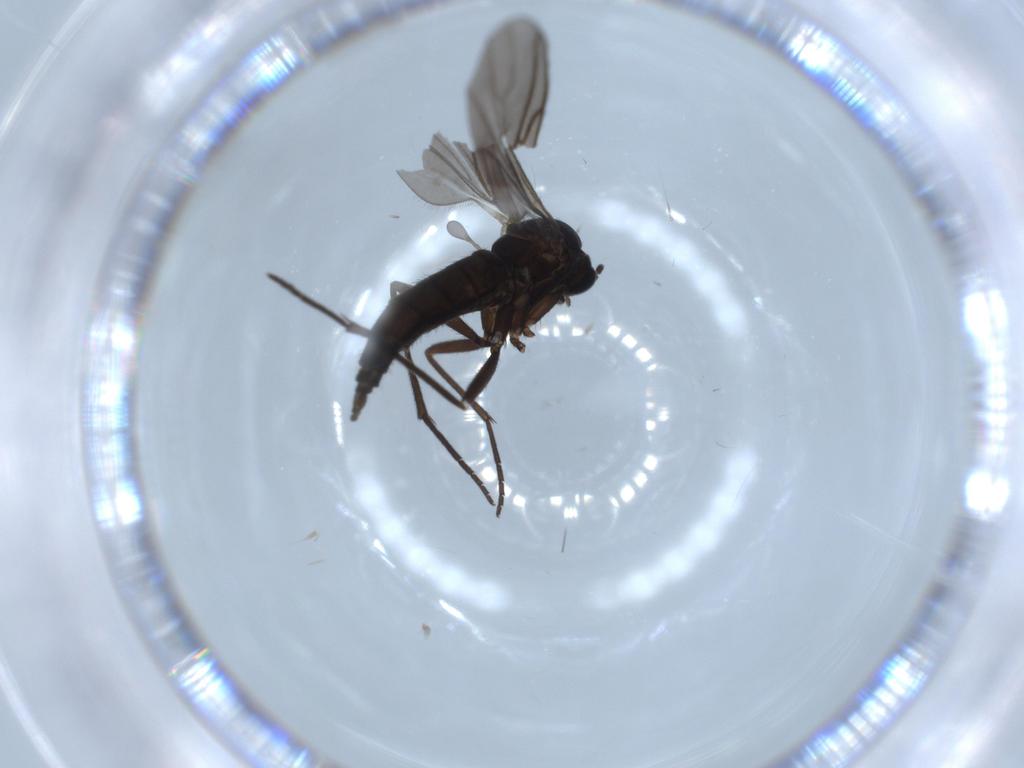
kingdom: Animalia
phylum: Arthropoda
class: Insecta
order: Diptera
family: Sciaridae
